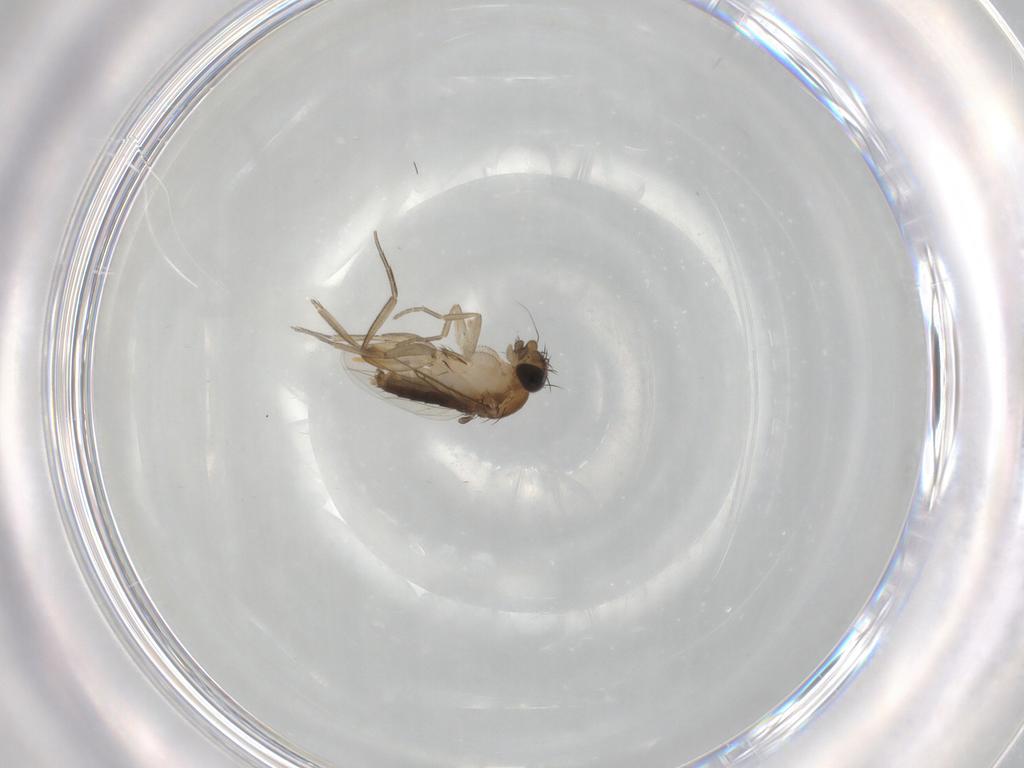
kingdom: Animalia
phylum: Arthropoda
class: Insecta
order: Diptera
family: Phoridae
